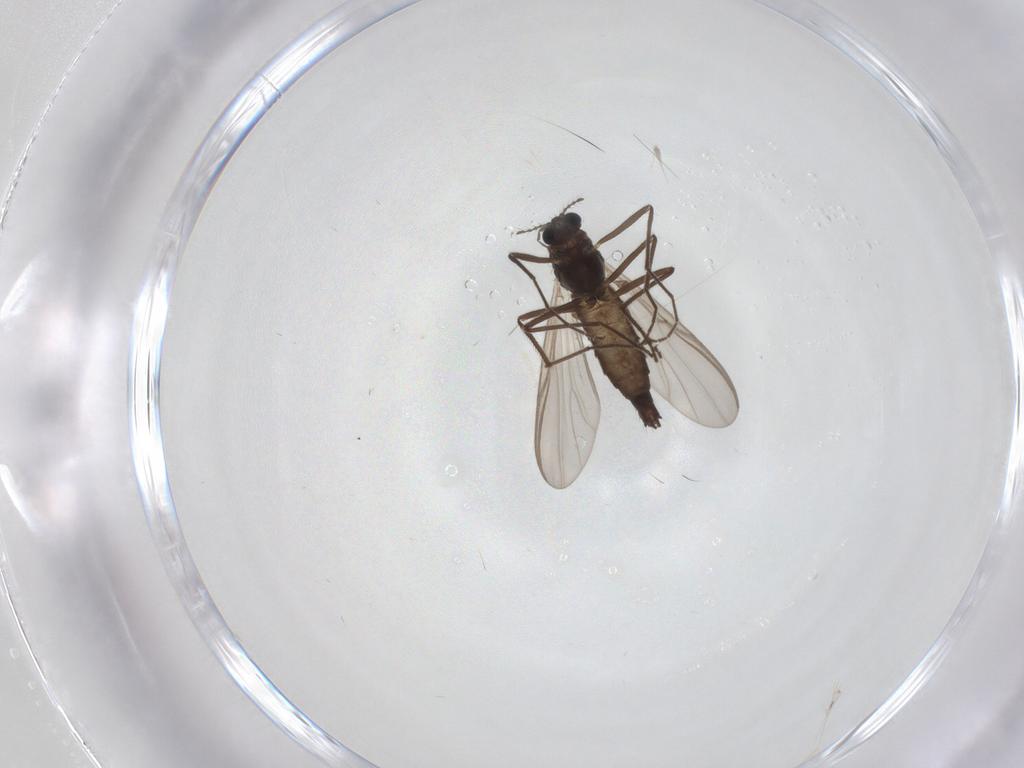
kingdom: Animalia
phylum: Arthropoda
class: Insecta
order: Diptera
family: Chironomidae
